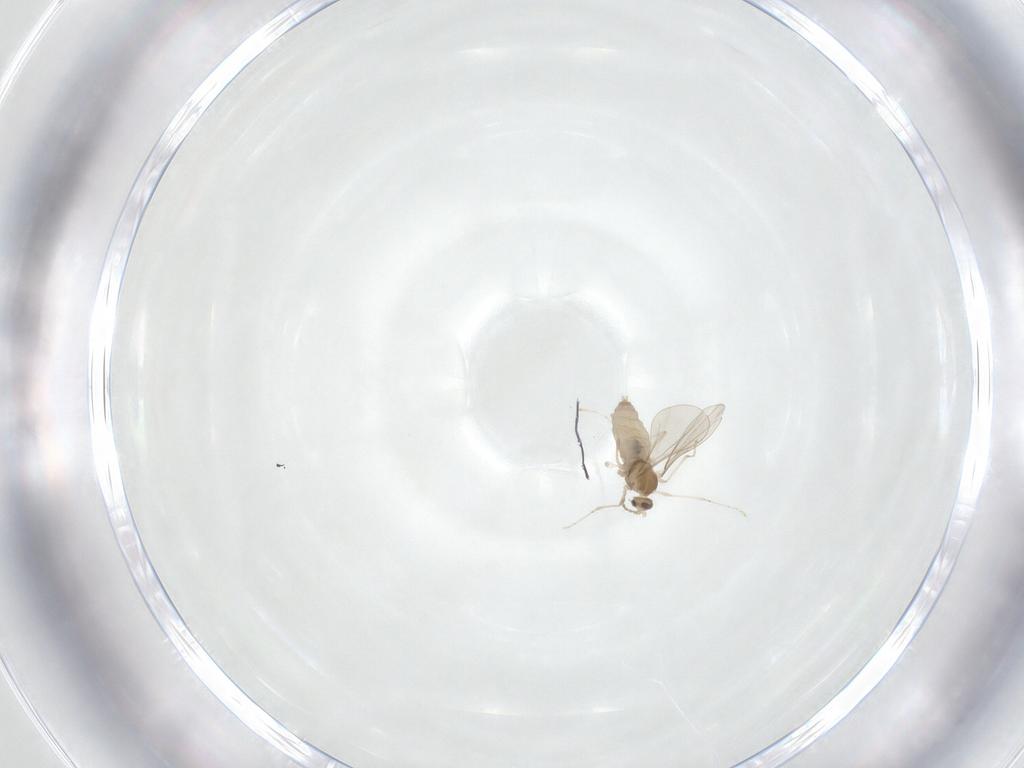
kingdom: Animalia
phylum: Arthropoda
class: Insecta
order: Diptera
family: Cecidomyiidae
